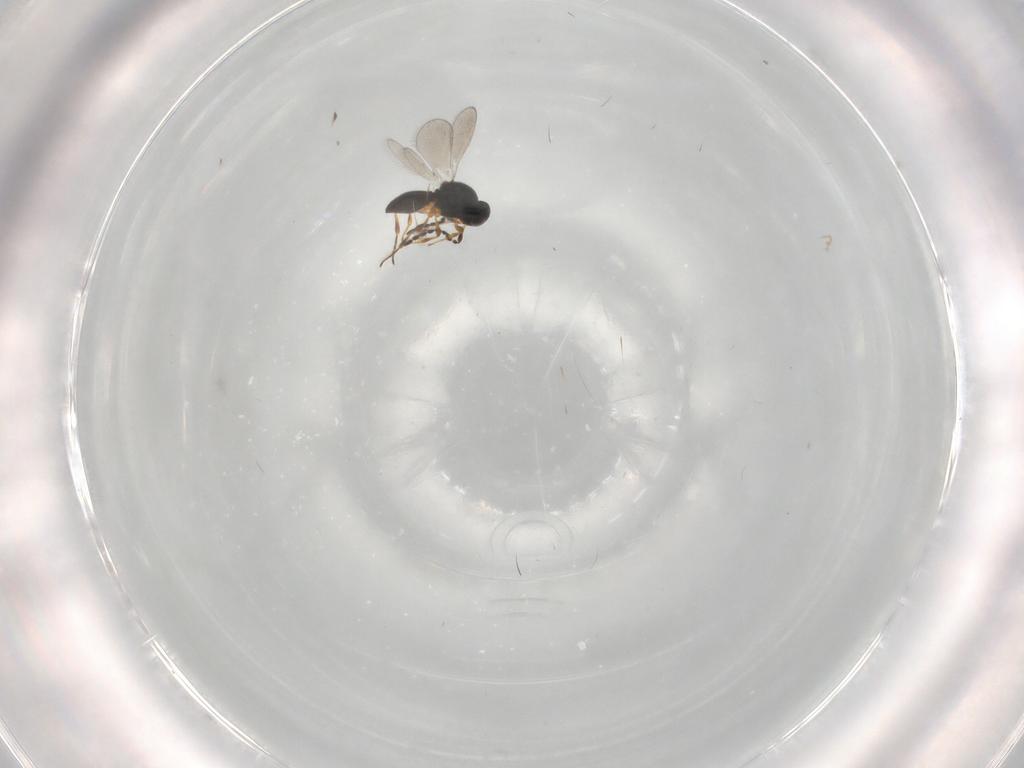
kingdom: Animalia
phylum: Arthropoda
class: Insecta
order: Hymenoptera
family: Platygastridae
